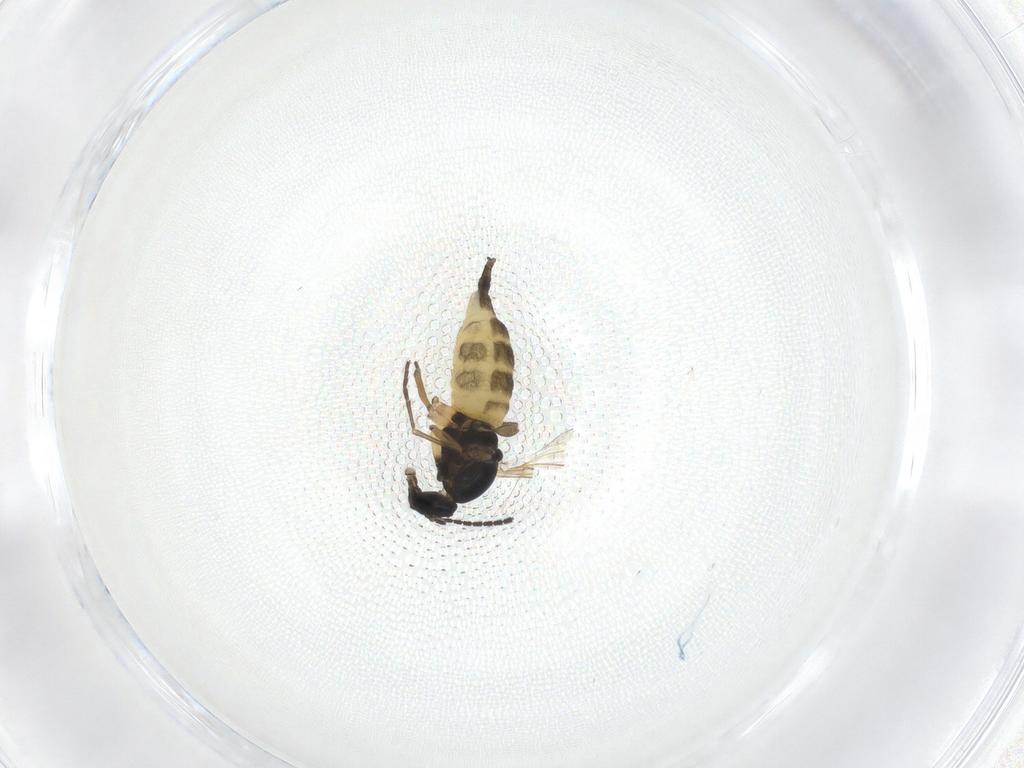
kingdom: Animalia
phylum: Arthropoda
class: Insecta
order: Diptera
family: Sciaridae
